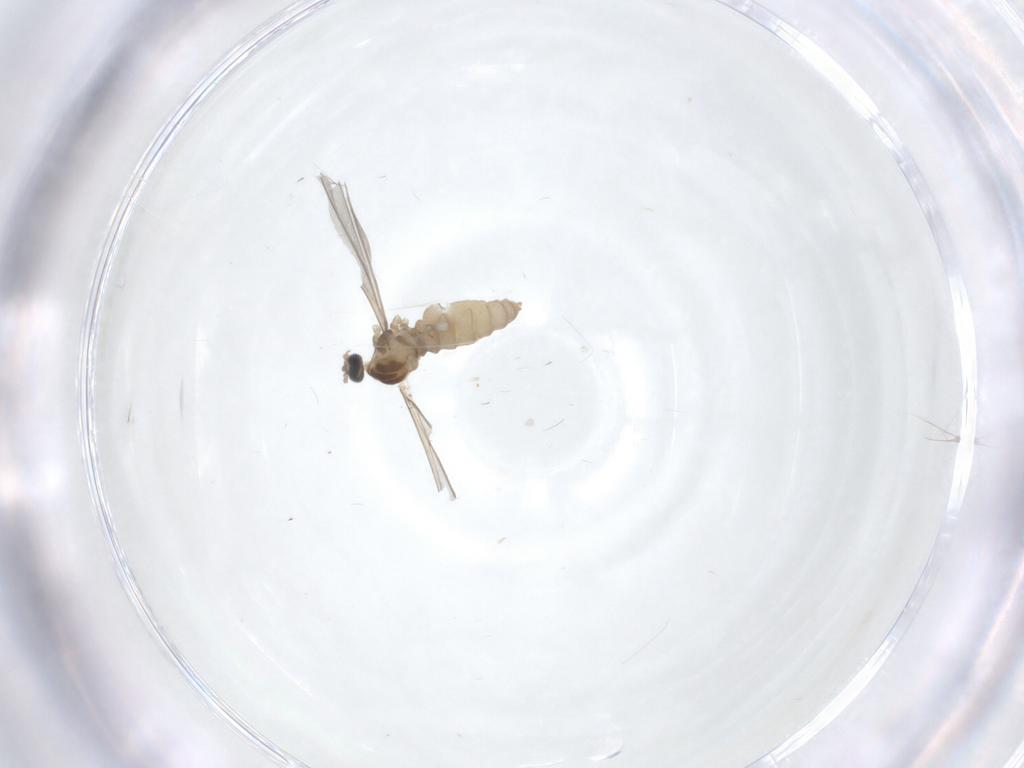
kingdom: Animalia
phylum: Arthropoda
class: Insecta
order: Diptera
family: Cecidomyiidae
